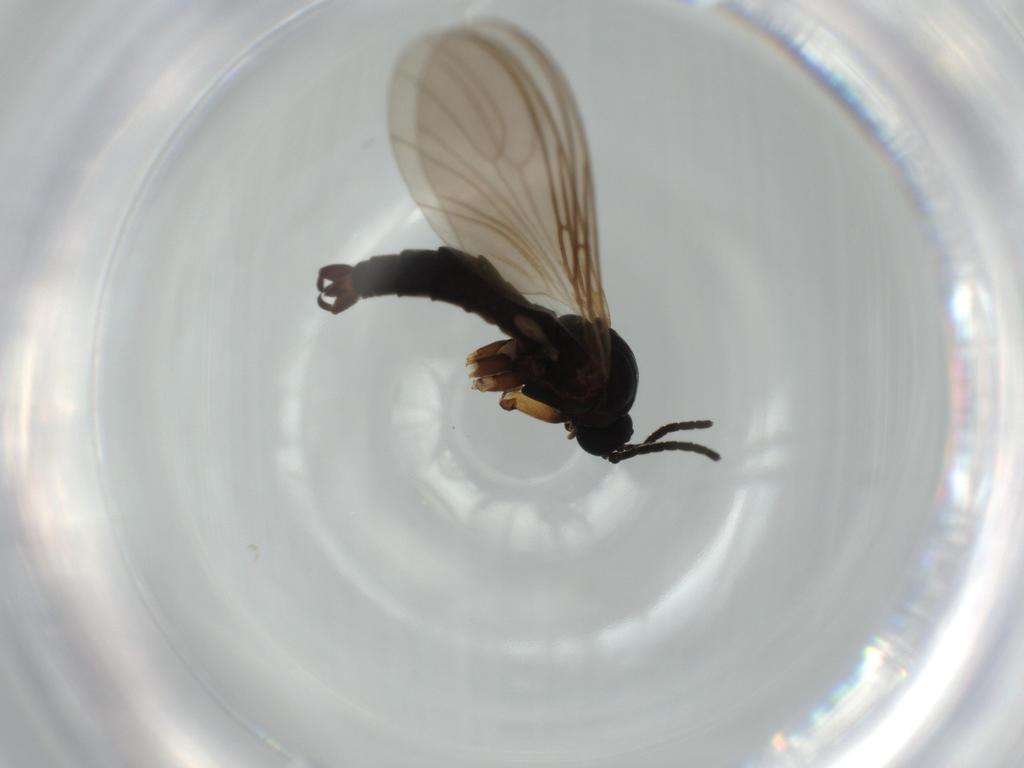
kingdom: Animalia
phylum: Arthropoda
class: Insecta
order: Diptera
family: Sciaridae
